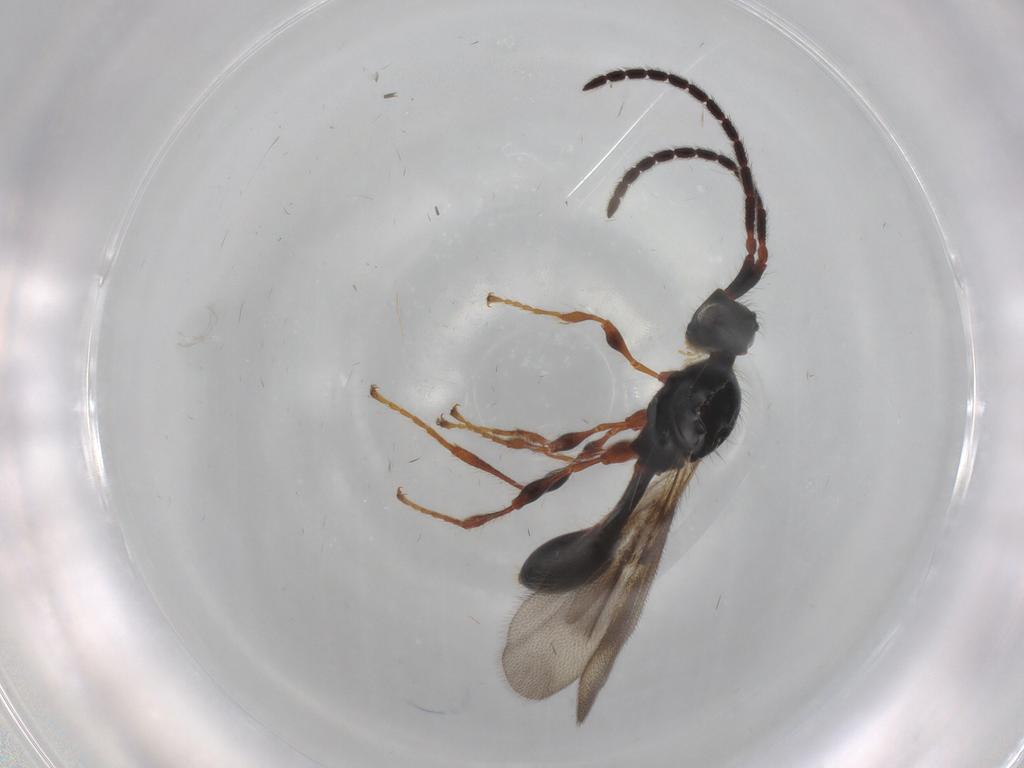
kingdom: Animalia
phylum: Arthropoda
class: Insecta
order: Hymenoptera
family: Diapriidae
